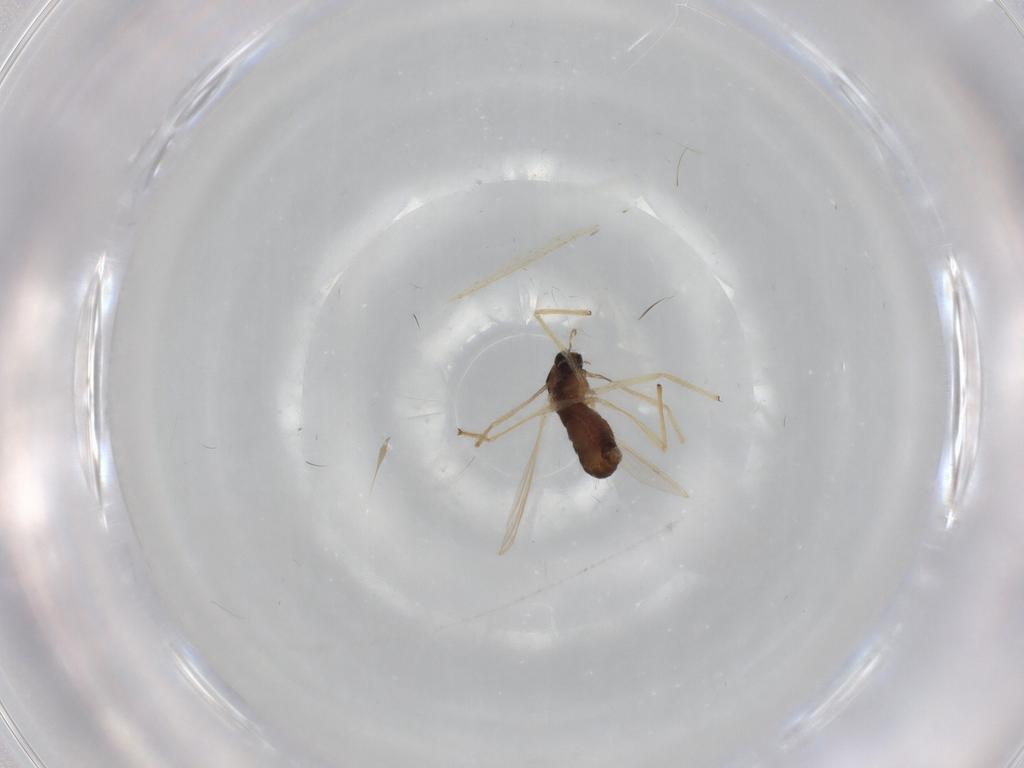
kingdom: Animalia
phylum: Arthropoda
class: Insecta
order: Diptera
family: Chironomidae
